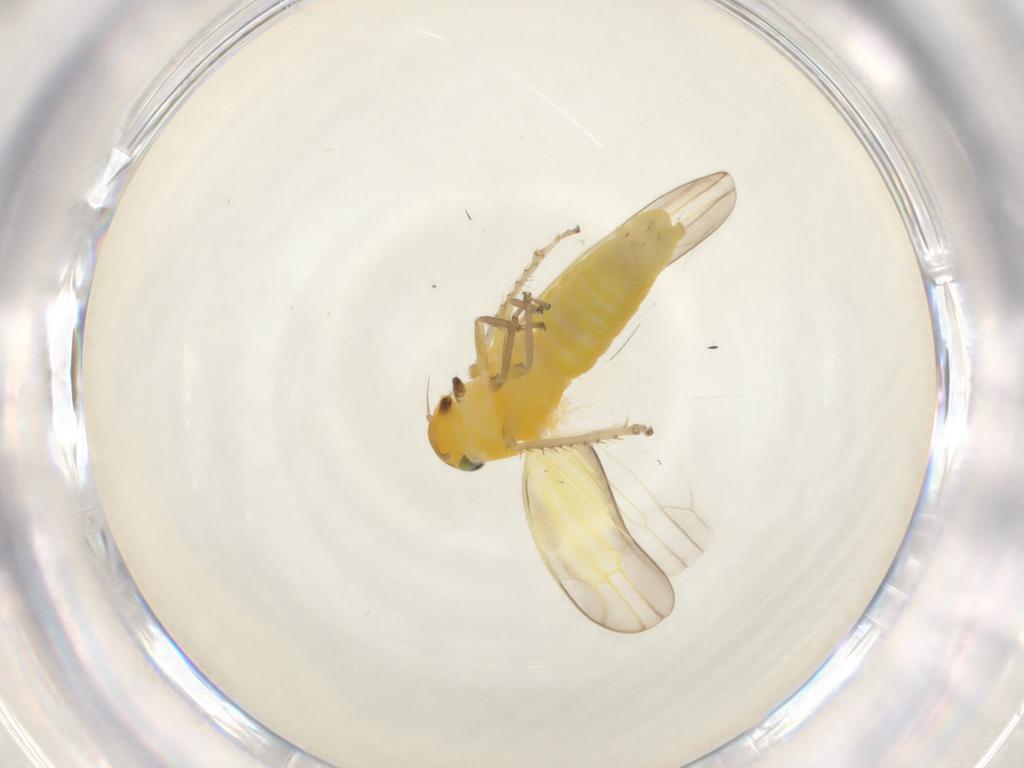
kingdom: Animalia
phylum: Arthropoda
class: Insecta
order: Hemiptera
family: Cicadellidae
